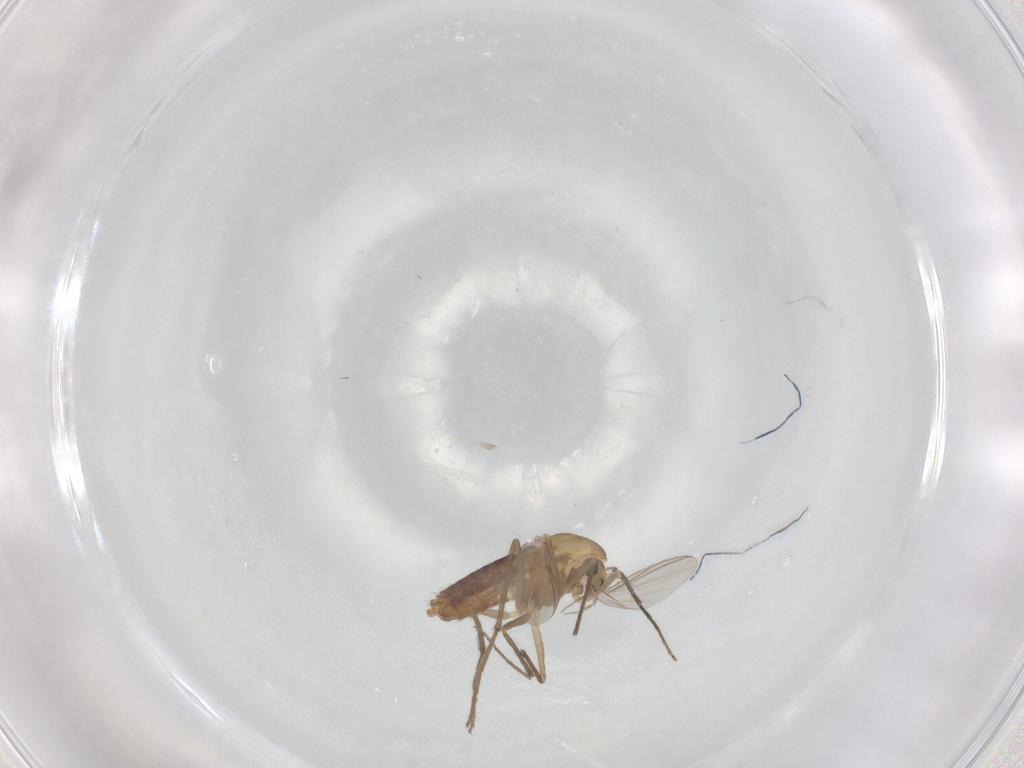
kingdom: Animalia
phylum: Arthropoda
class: Insecta
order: Diptera
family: Chironomidae
